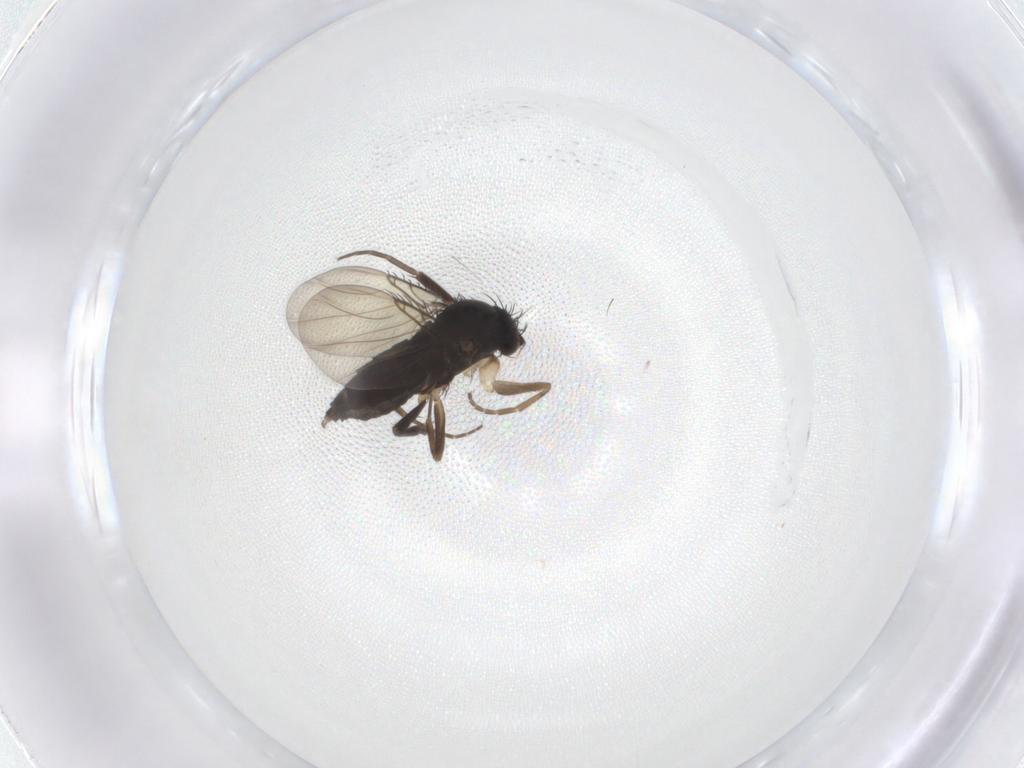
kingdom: Animalia
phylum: Arthropoda
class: Insecta
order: Diptera
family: Phoridae
